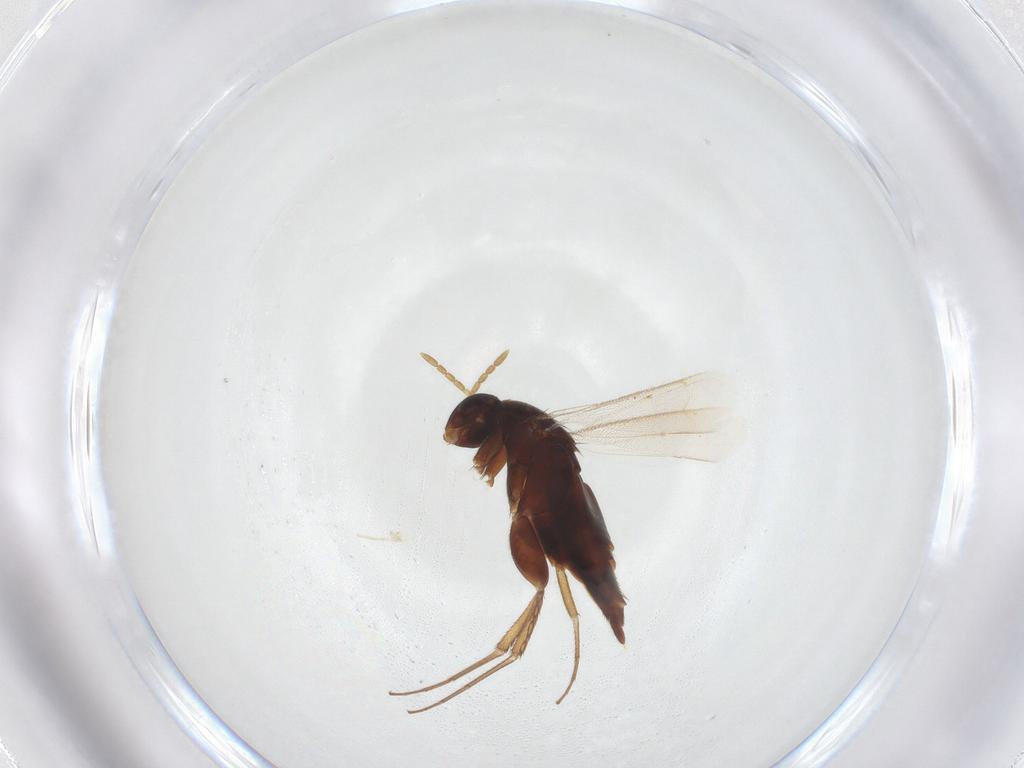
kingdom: Animalia
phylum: Arthropoda
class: Insecta
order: Hymenoptera
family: Eulophidae
